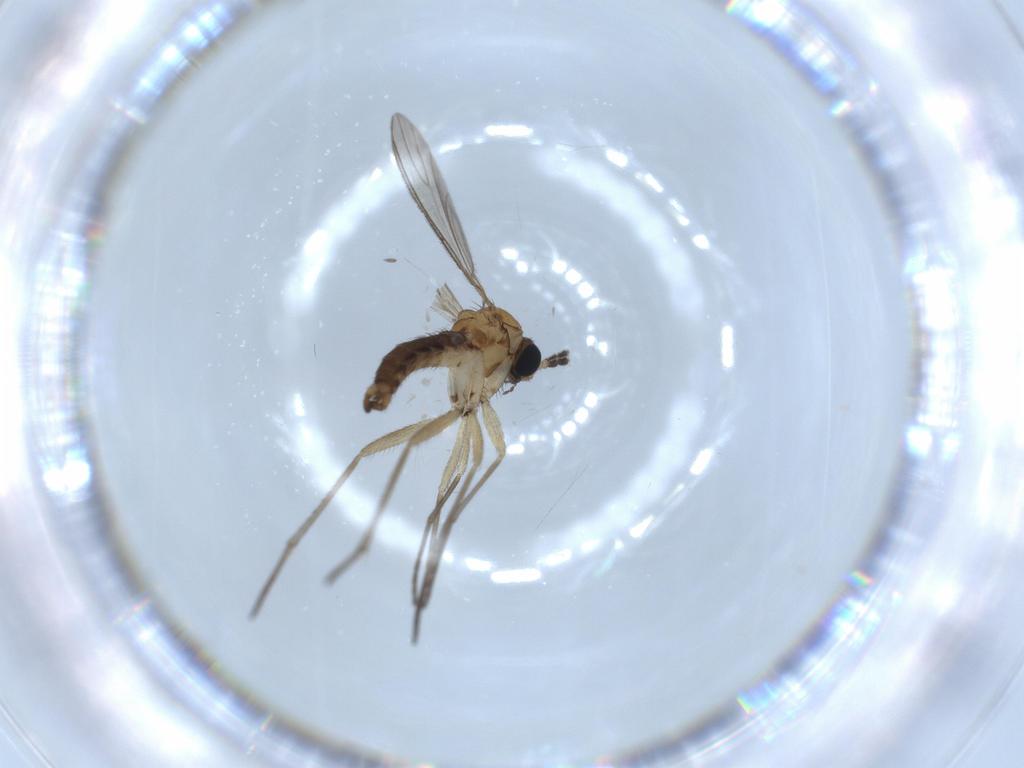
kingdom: Animalia
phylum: Arthropoda
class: Insecta
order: Diptera
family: Sciaridae
